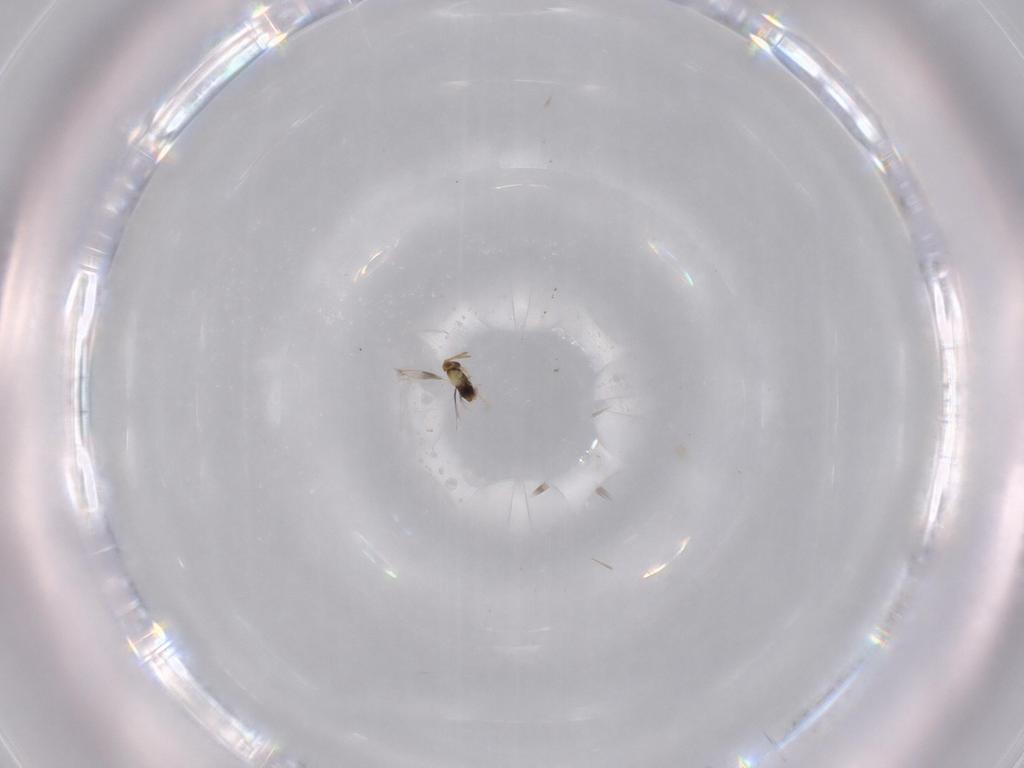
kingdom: Animalia
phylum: Arthropoda
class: Insecta
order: Hymenoptera
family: Aphelinidae
